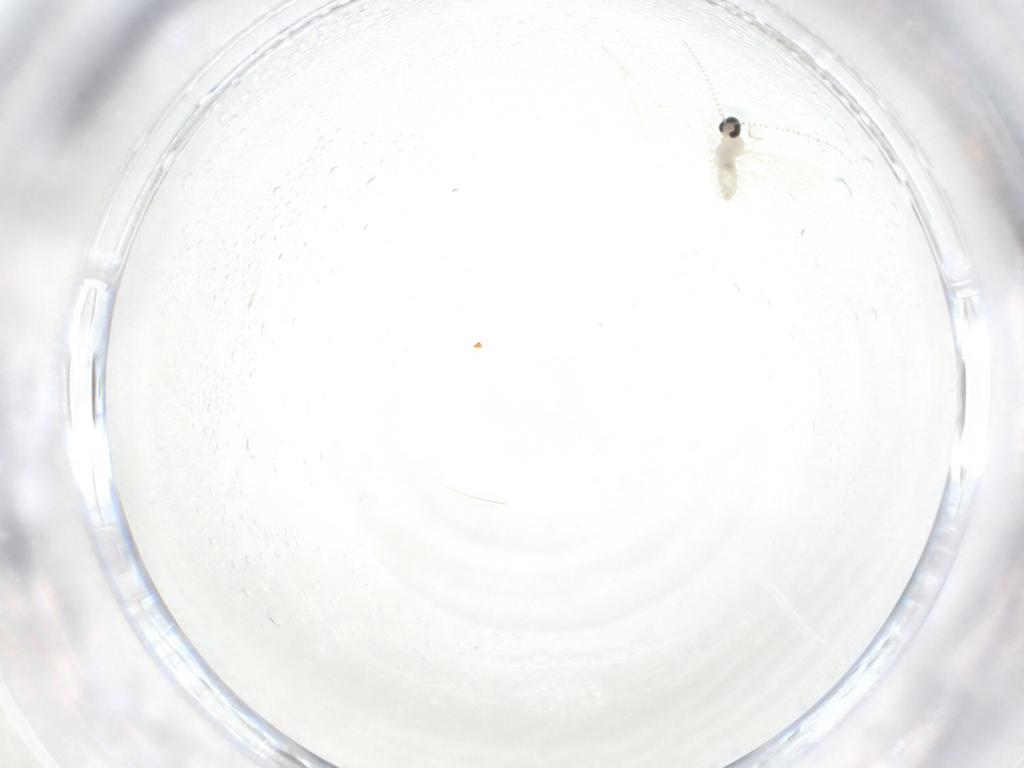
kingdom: Animalia
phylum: Arthropoda
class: Insecta
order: Diptera
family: Cecidomyiidae
